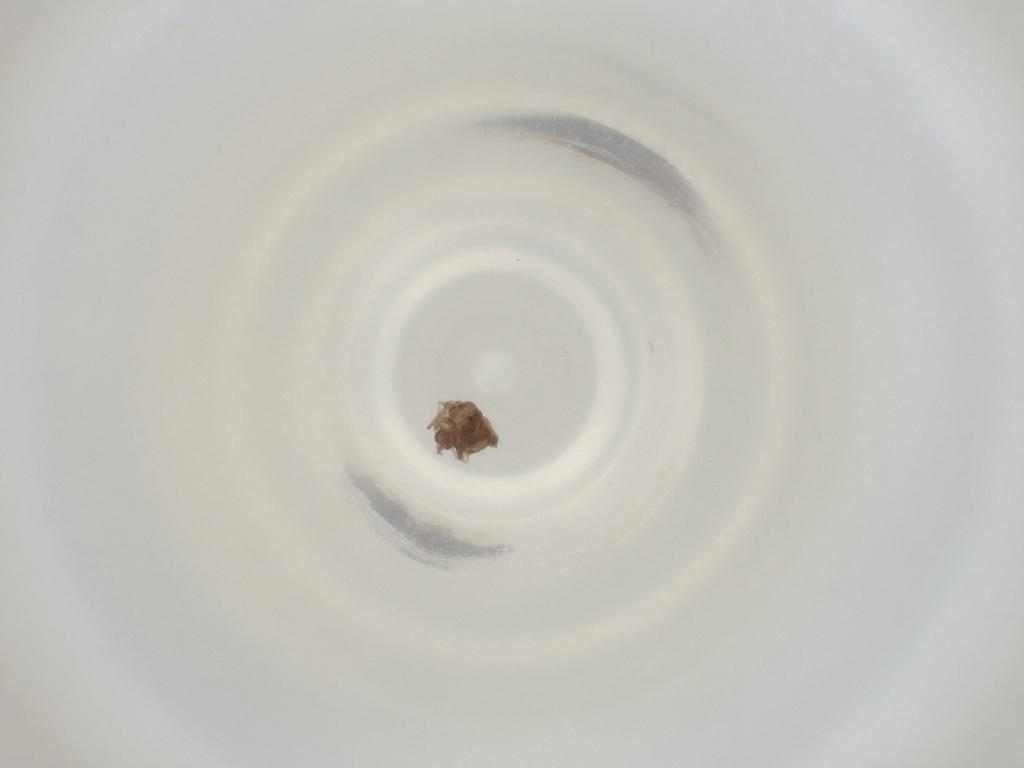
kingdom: Animalia
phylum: Arthropoda
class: Insecta
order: Diptera
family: Cecidomyiidae
